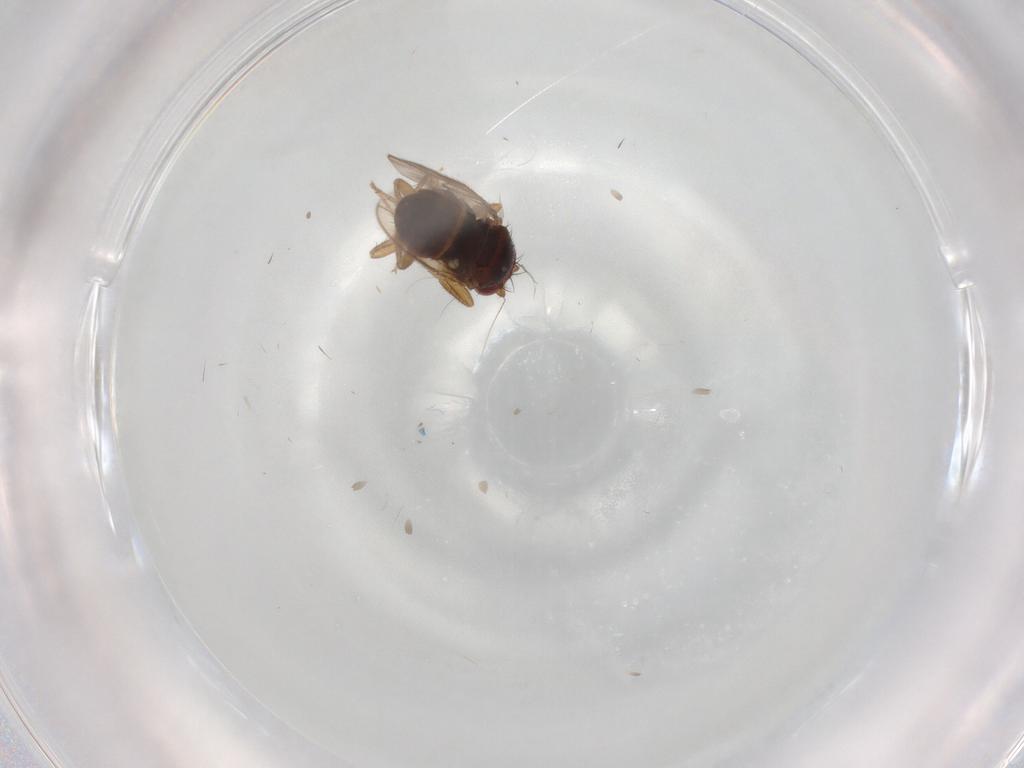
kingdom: Animalia
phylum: Arthropoda
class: Insecta
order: Diptera
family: Sphaeroceridae
